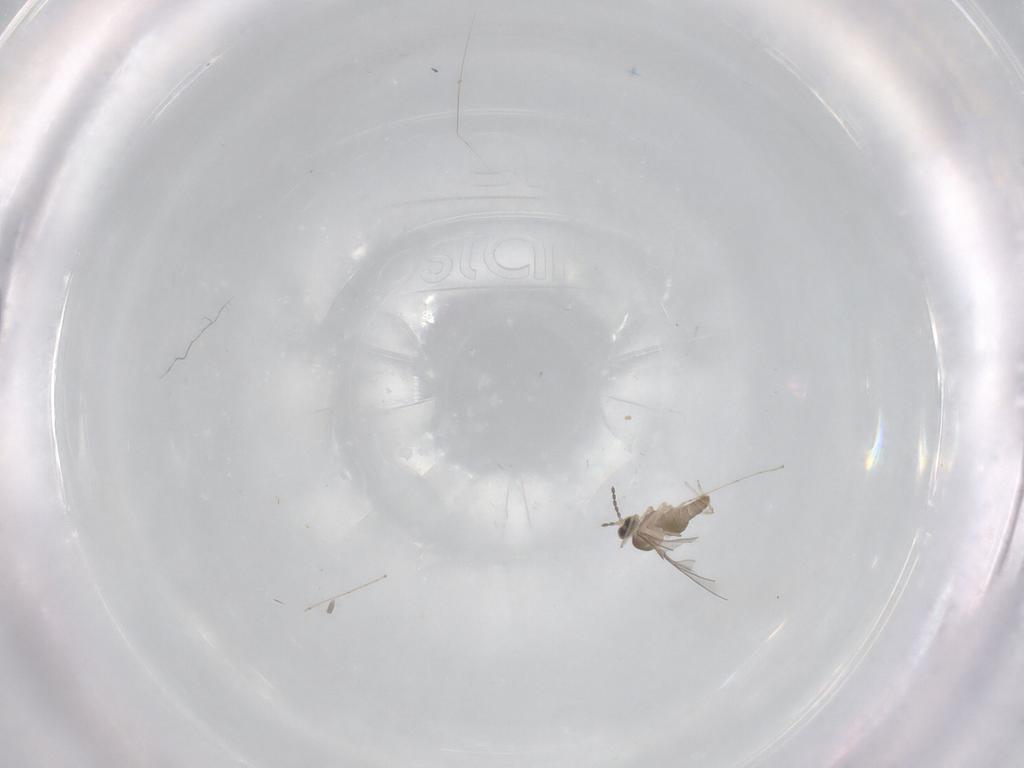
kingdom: Animalia
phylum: Arthropoda
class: Insecta
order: Diptera
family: Cecidomyiidae
